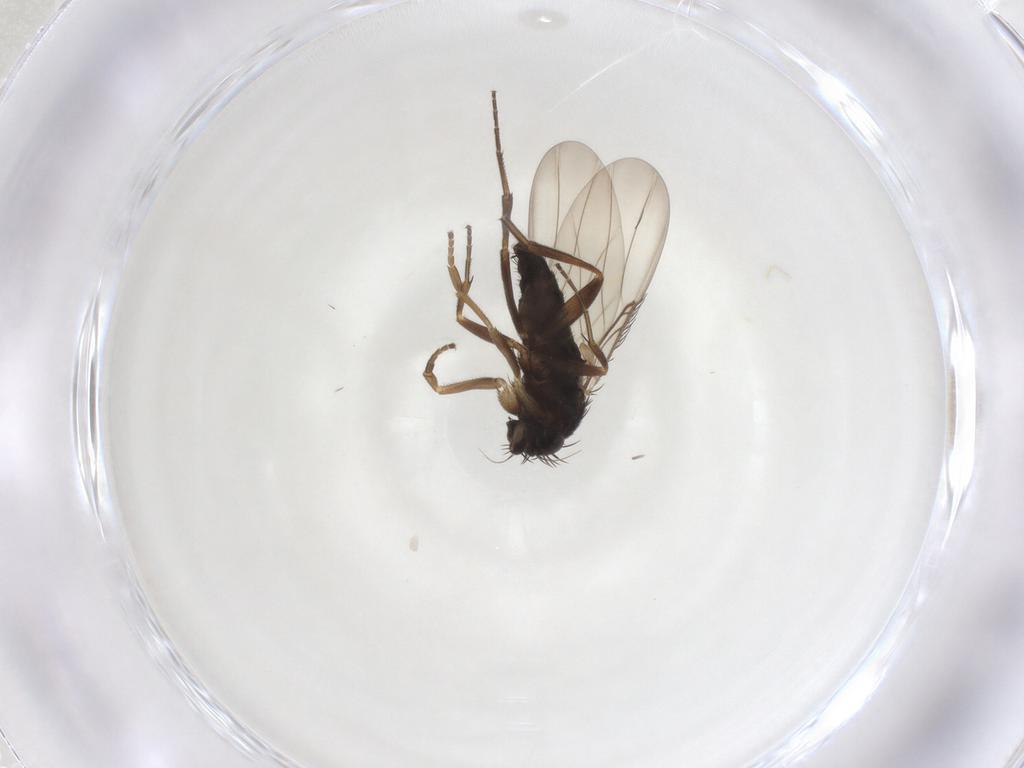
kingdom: Animalia
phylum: Arthropoda
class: Insecta
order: Diptera
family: Phoridae
